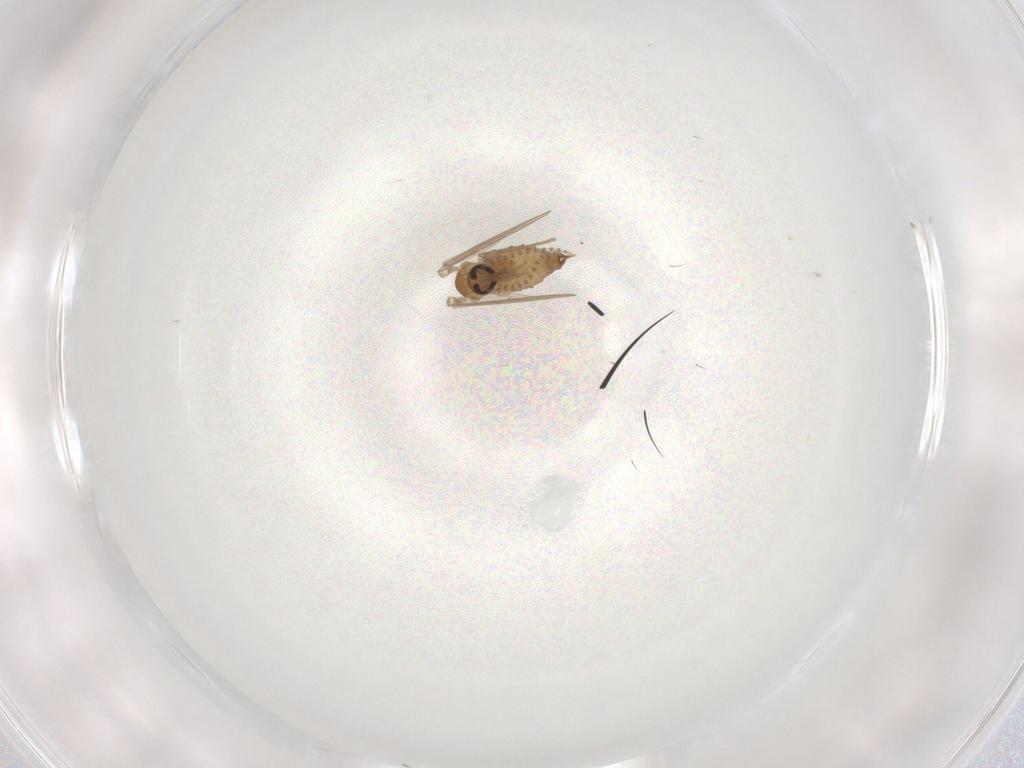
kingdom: Animalia
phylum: Arthropoda
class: Insecta
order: Diptera
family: Psychodidae
